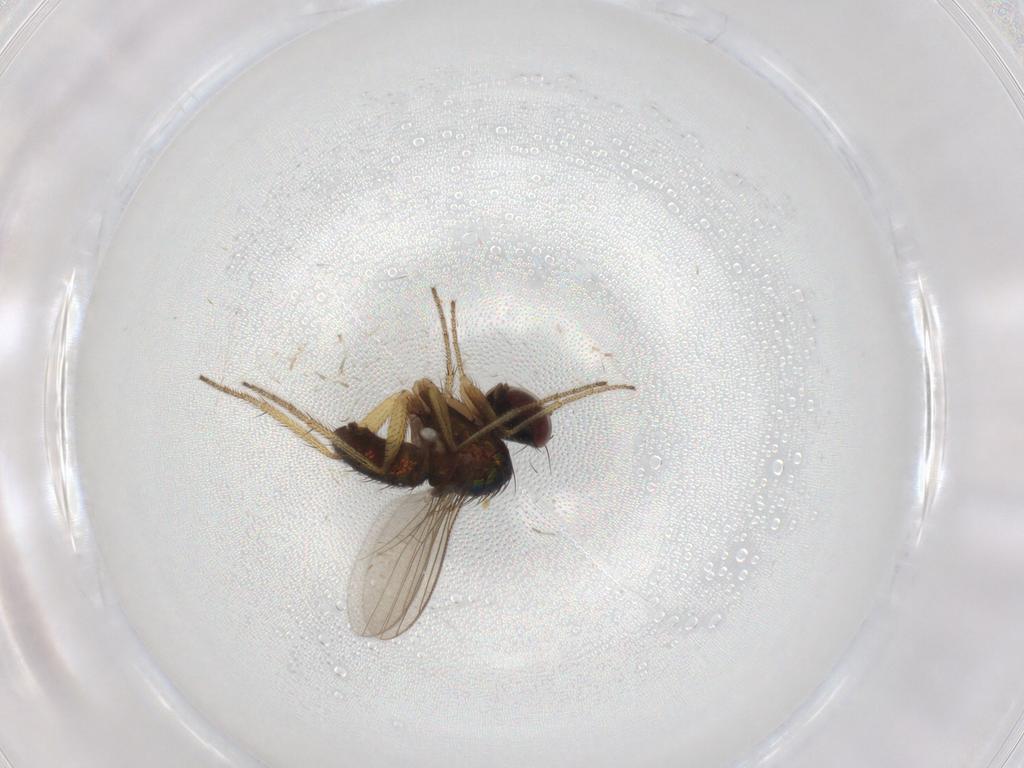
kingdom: Animalia
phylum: Arthropoda
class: Insecta
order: Diptera
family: Dolichopodidae
